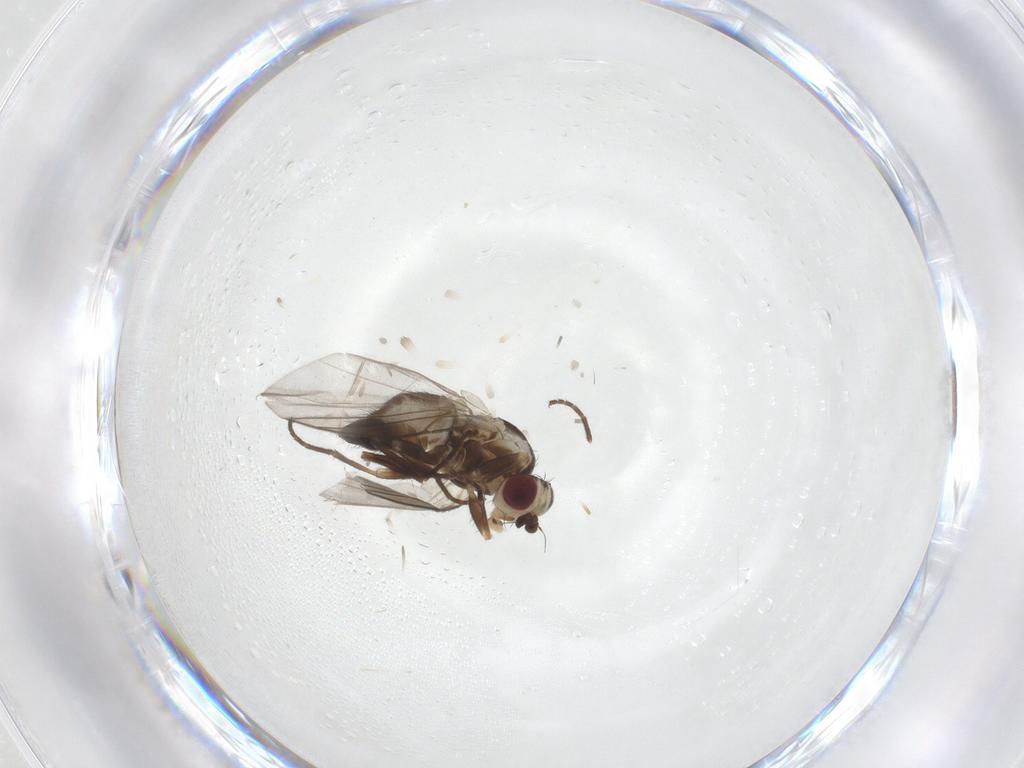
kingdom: Animalia
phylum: Arthropoda
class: Insecta
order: Diptera
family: Agromyzidae
